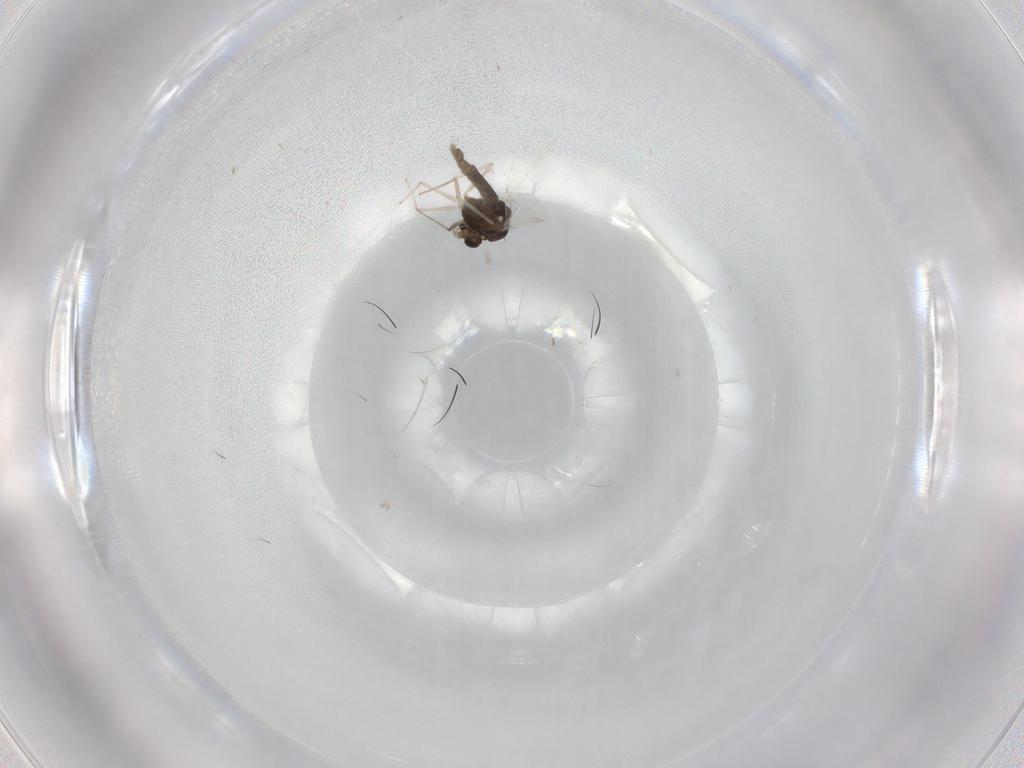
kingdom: Animalia
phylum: Arthropoda
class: Insecta
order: Diptera
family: Chironomidae
